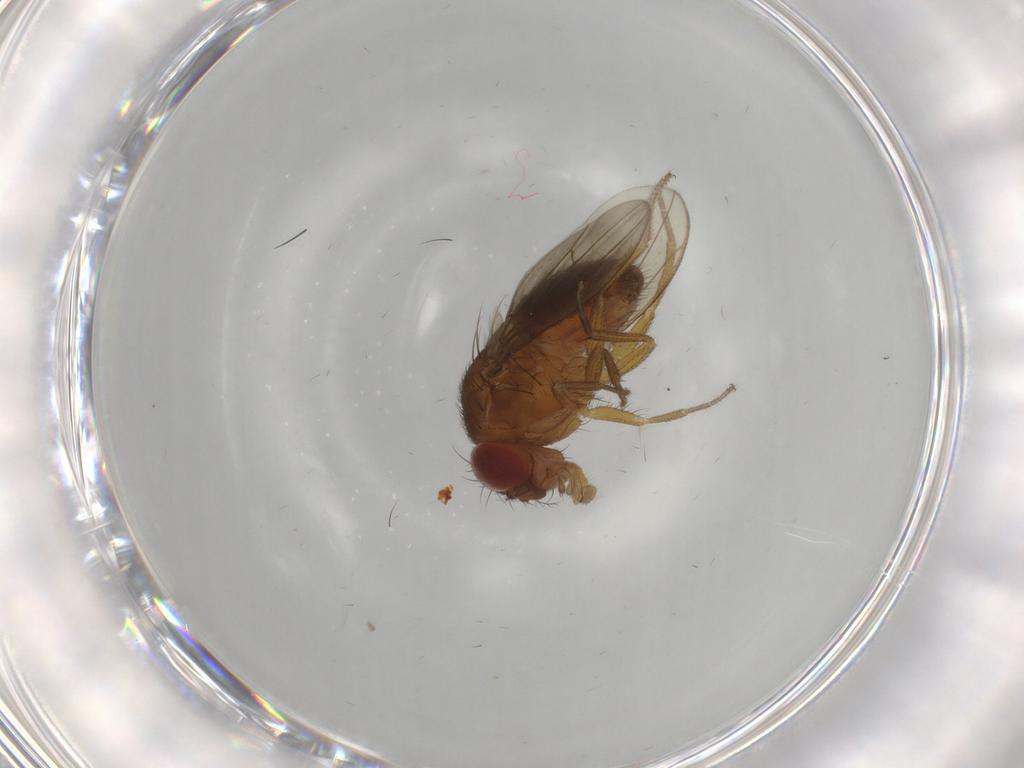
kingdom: Animalia
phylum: Arthropoda
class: Insecta
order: Diptera
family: Drosophilidae
